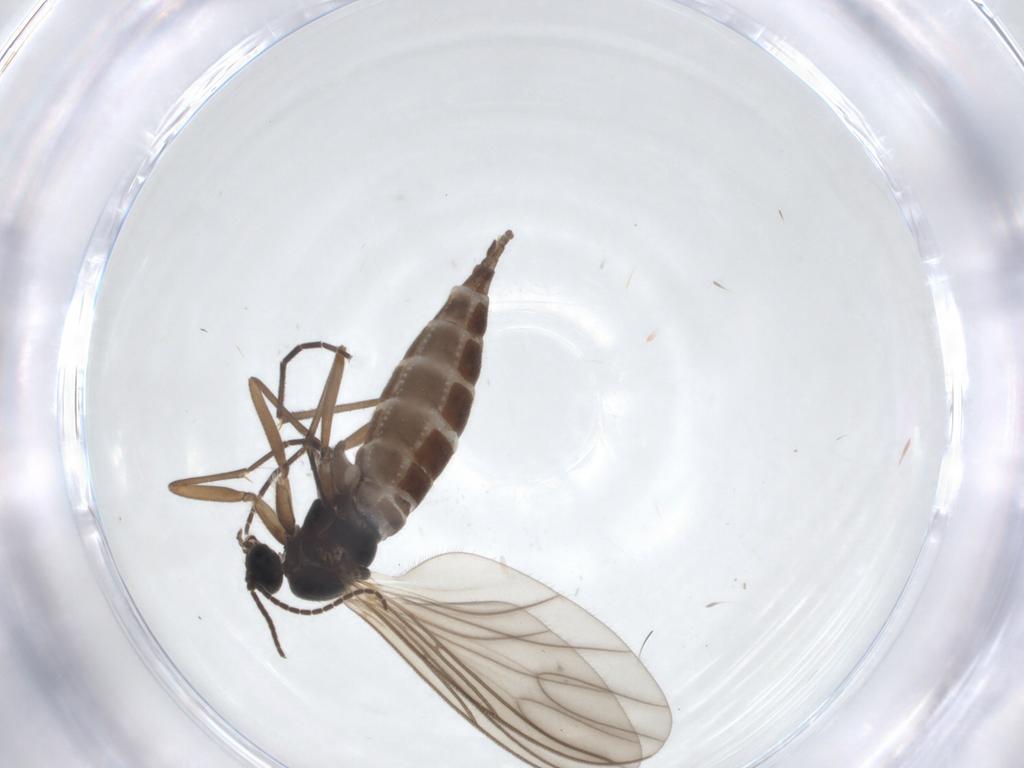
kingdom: Animalia
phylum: Arthropoda
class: Insecta
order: Diptera
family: Sciaridae
